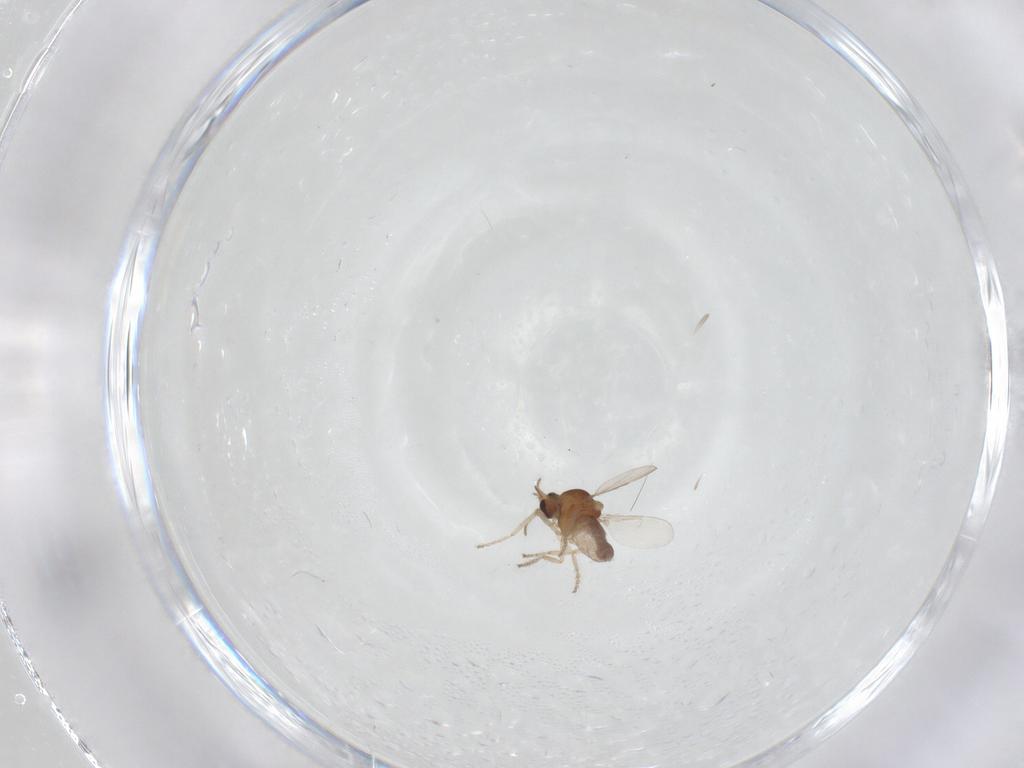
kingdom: Animalia
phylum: Arthropoda
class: Insecta
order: Diptera
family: Ceratopogonidae
